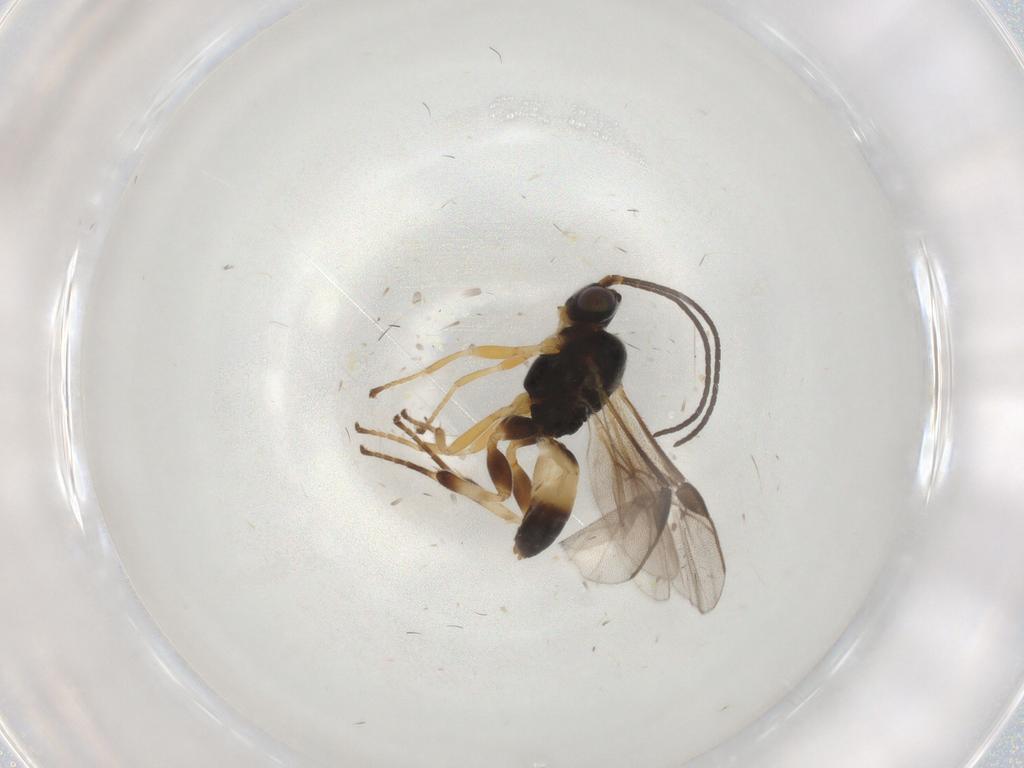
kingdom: Animalia
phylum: Arthropoda
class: Insecta
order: Hymenoptera
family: Braconidae
